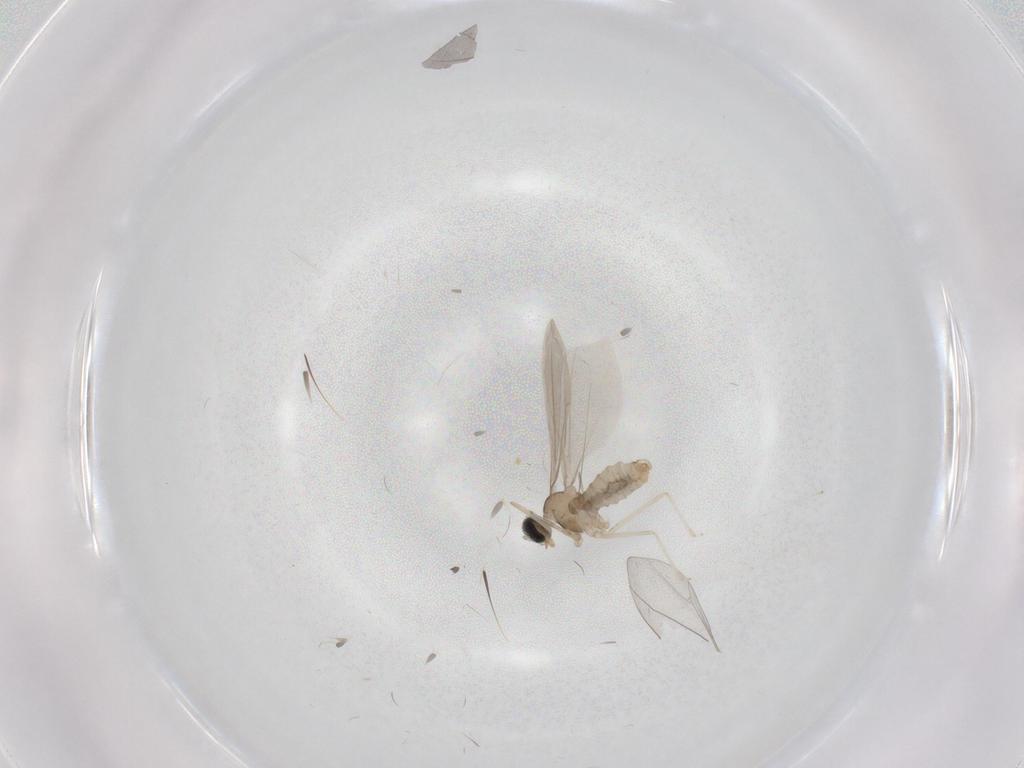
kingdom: Animalia
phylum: Arthropoda
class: Insecta
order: Diptera
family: Cecidomyiidae
